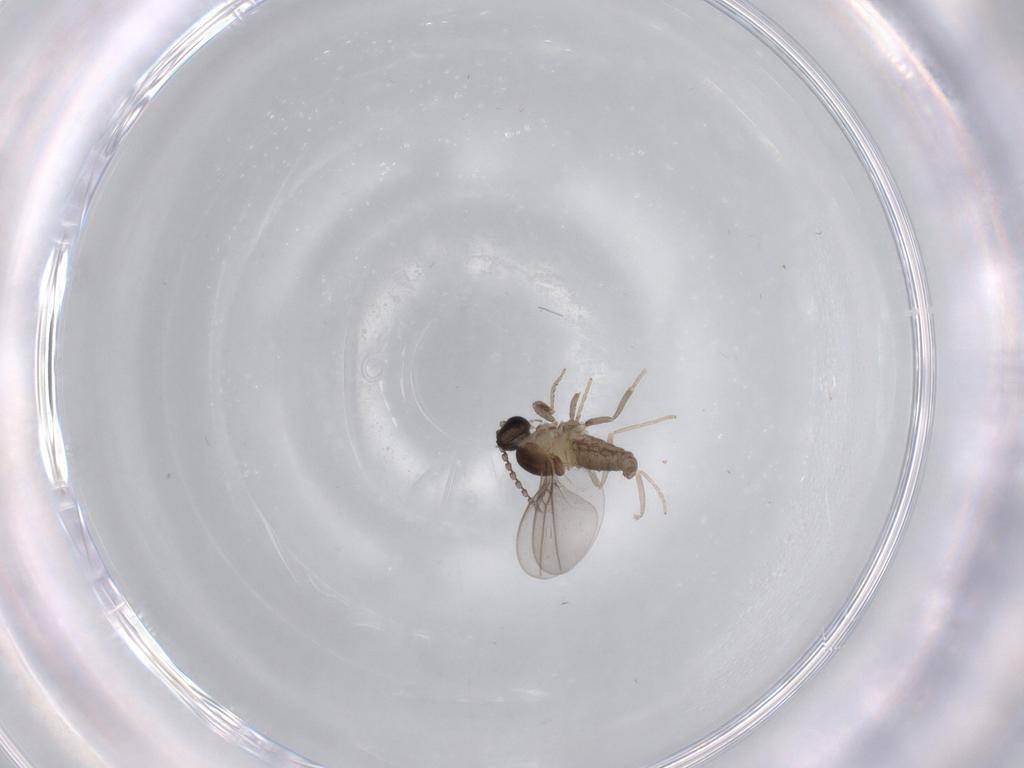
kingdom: Animalia
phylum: Arthropoda
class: Insecta
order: Diptera
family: Cecidomyiidae
